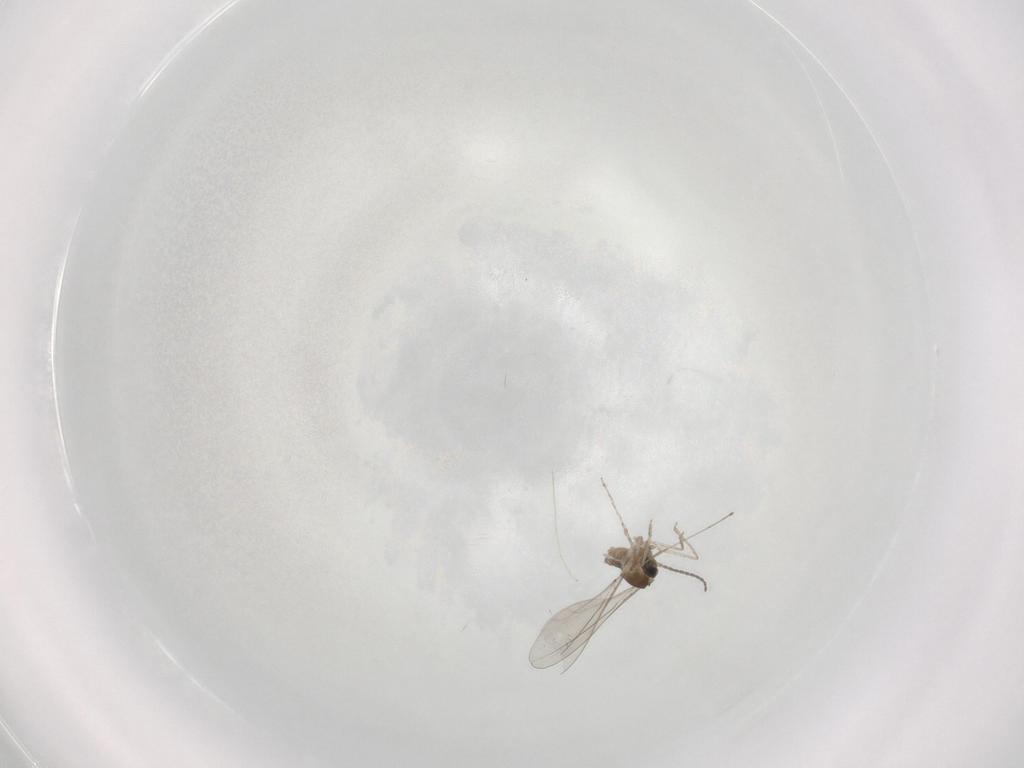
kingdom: Animalia
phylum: Arthropoda
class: Insecta
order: Diptera
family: Cecidomyiidae
